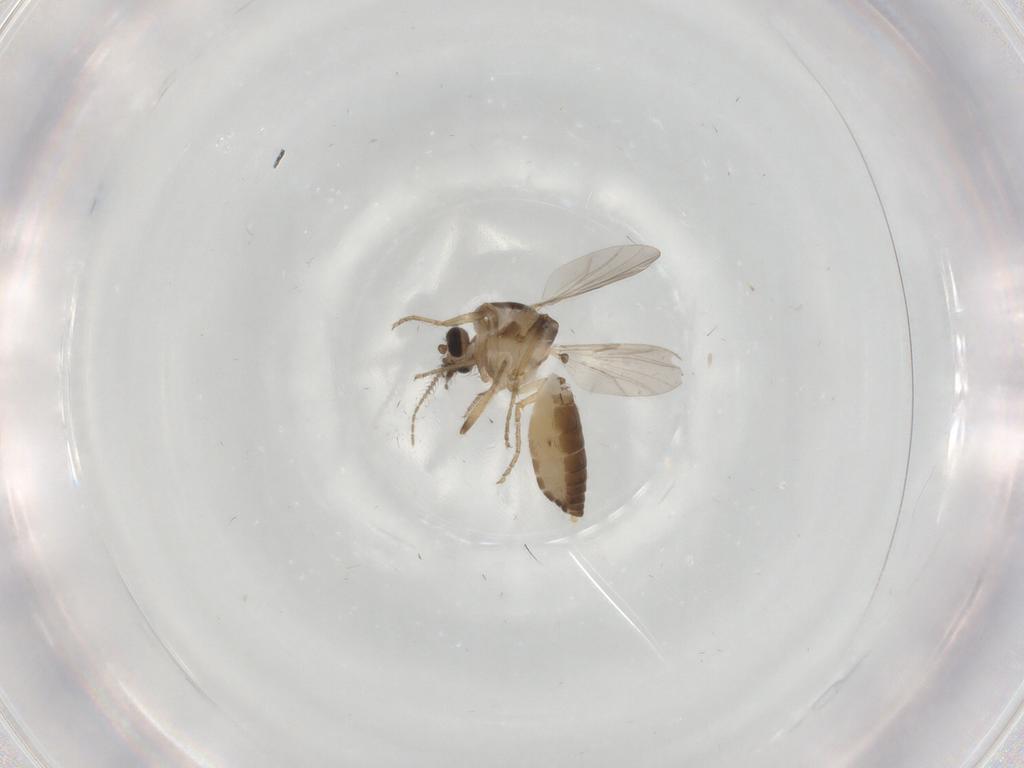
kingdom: Animalia
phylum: Arthropoda
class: Insecta
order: Diptera
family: Ceratopogonidae
